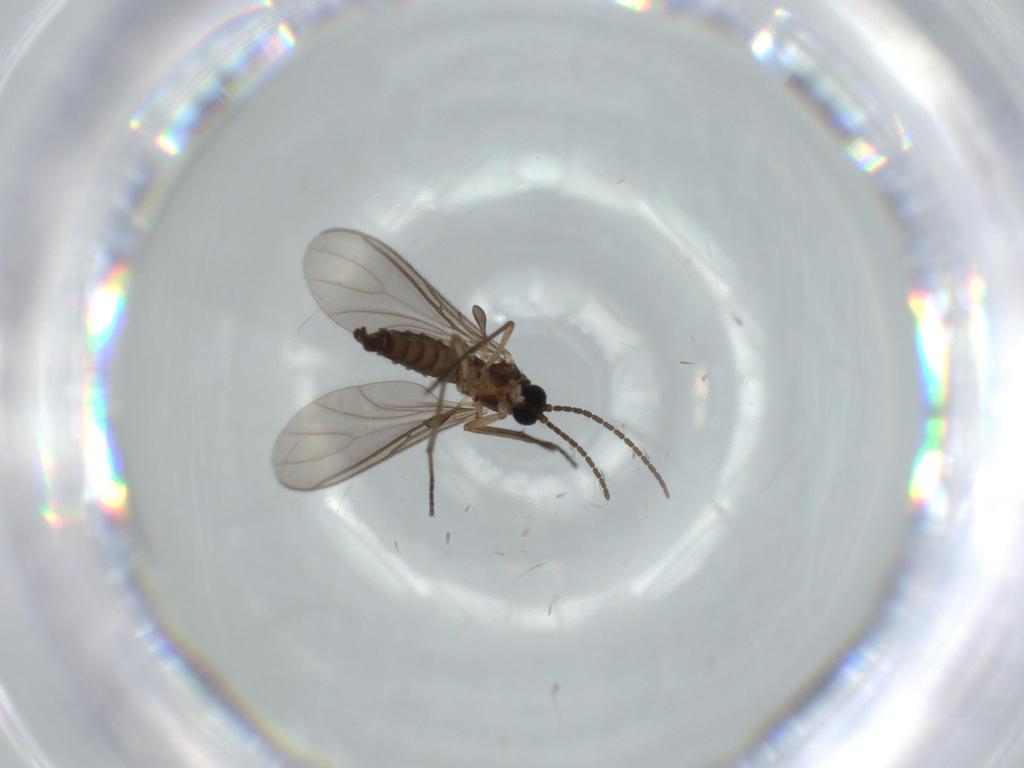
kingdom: Animalia
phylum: Arthropoda
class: Insecta
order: Diptera
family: Sciaridae
